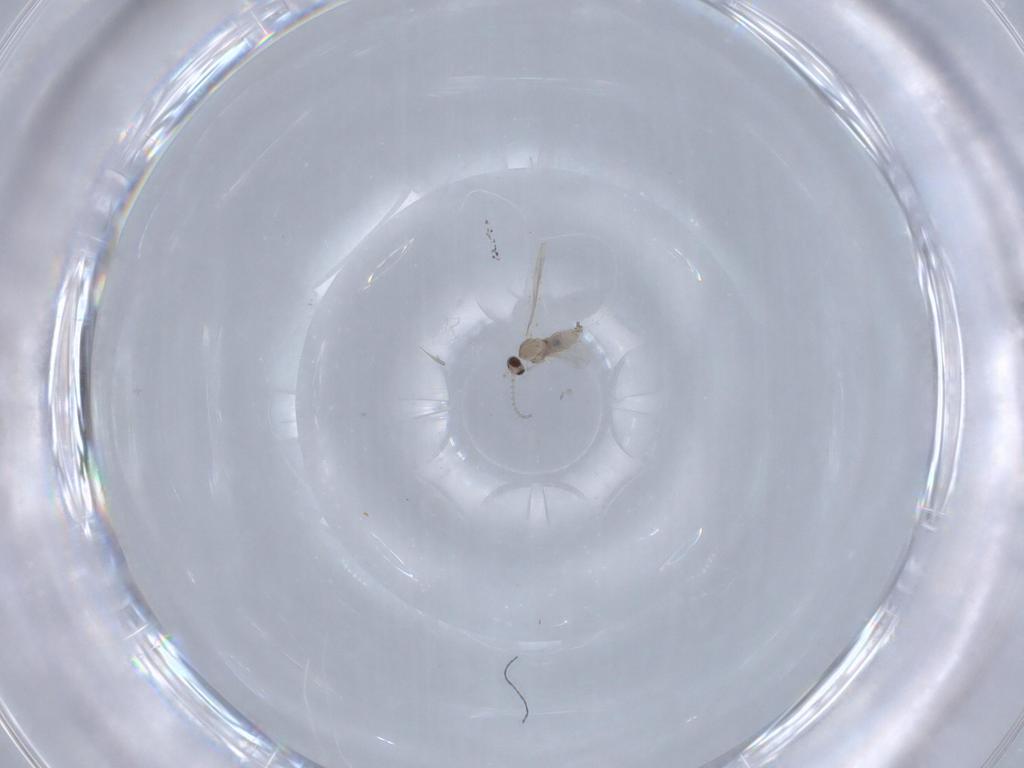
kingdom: Animalia
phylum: Arthropoda
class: Insecta
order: Diptera
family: Cecidomyiidae
